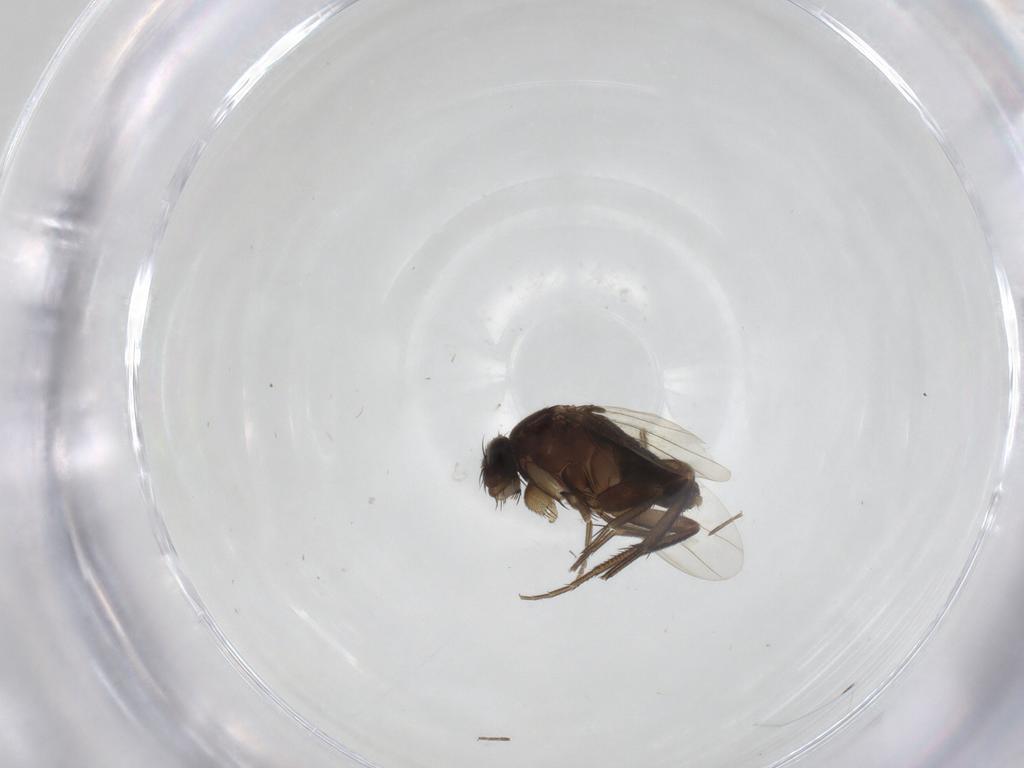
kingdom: Animalia
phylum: Arthropoda
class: Insecta
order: Diptera
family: Phoridae
